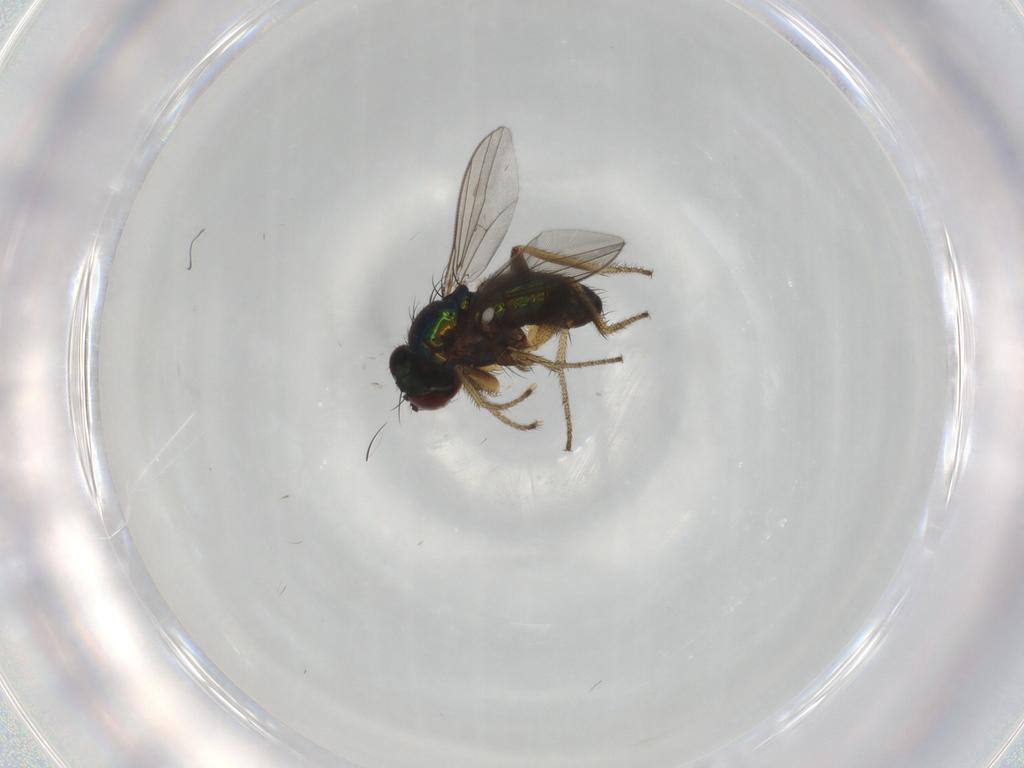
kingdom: Animalia
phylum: Arthropoda
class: Insecta
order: Diptera
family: Dolichopodidae
